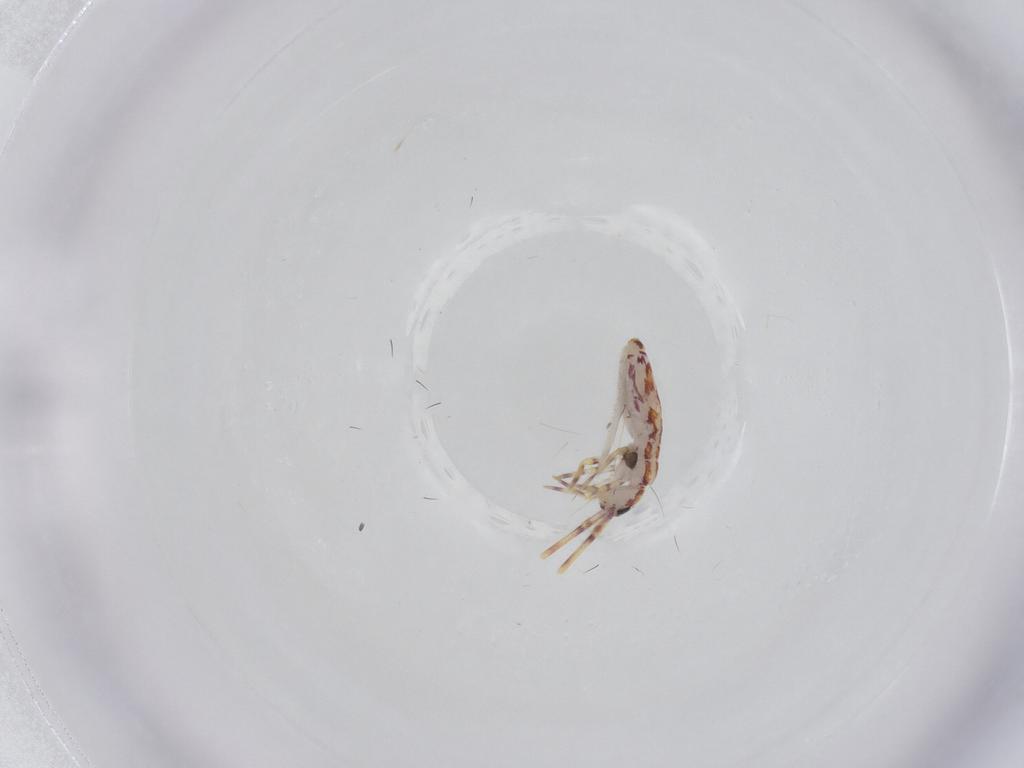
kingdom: Animalia
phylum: Arthropoda
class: Collembola
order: Entomobryomorpha
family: Entomobryidae
